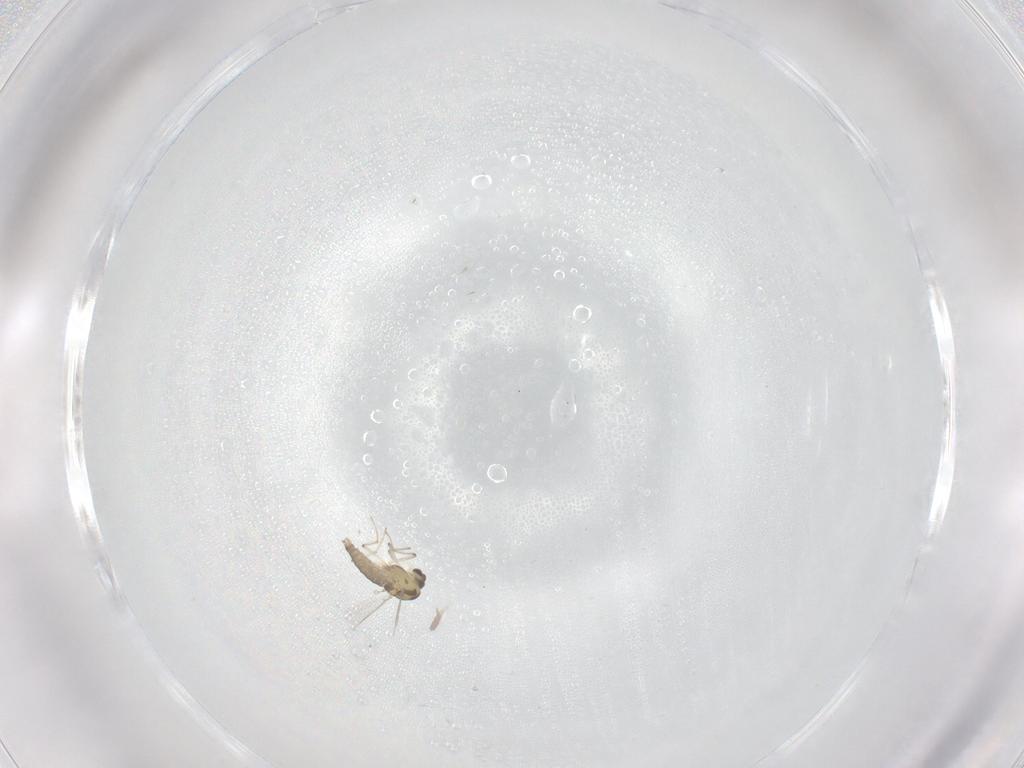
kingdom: Animalia
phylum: Arthropoda
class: Insecta
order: Diptera
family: Chironomidae
